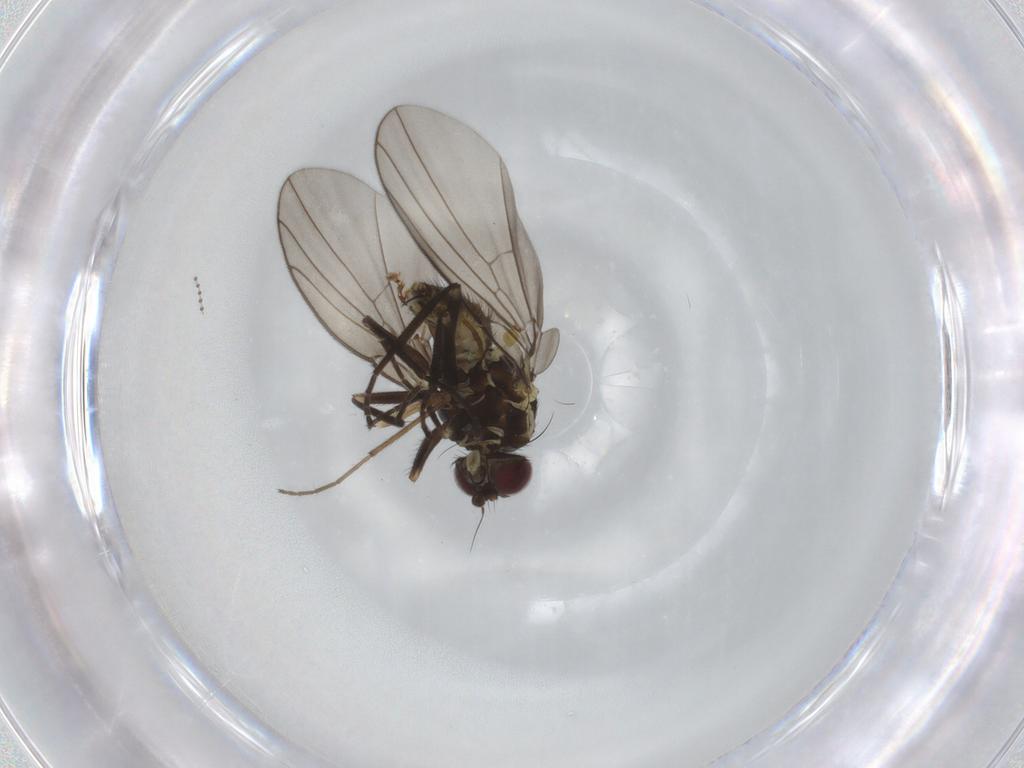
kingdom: Animalia
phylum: Arthropoda
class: Insecta
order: Diptera
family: Agromyzidae
